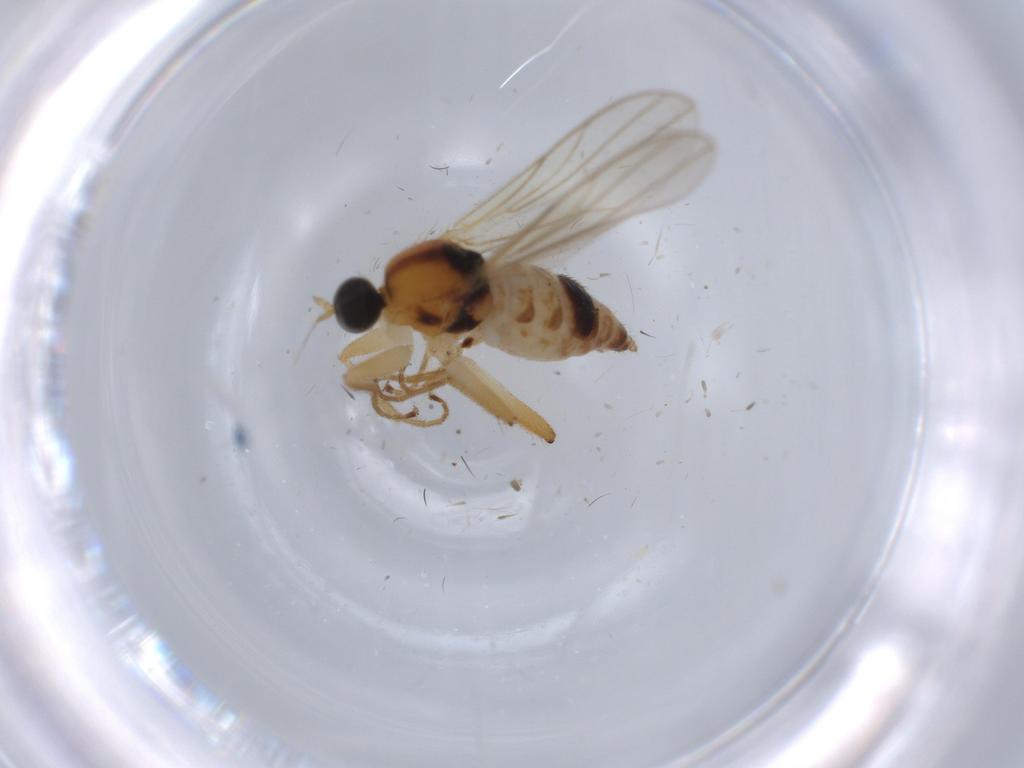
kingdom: Animalia
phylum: Arthropoda
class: Insecta
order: Diptera
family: Hybotidae
